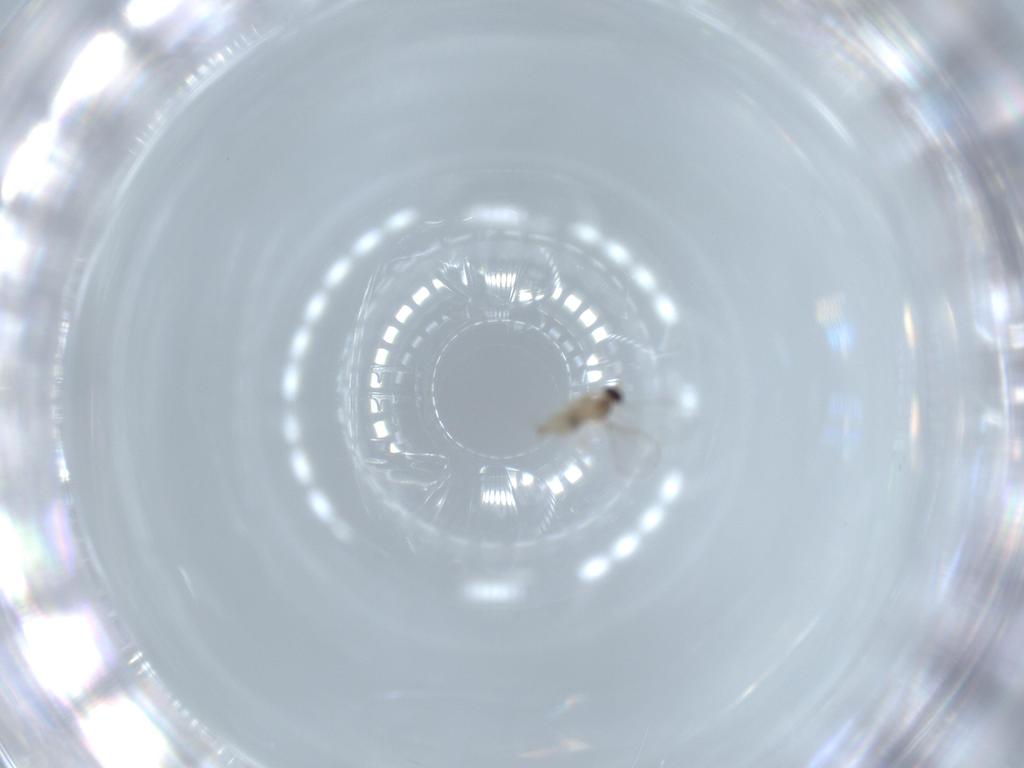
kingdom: Animalia
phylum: Arthropoda
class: Insecta
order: Diptera
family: Cecidomyiidae
